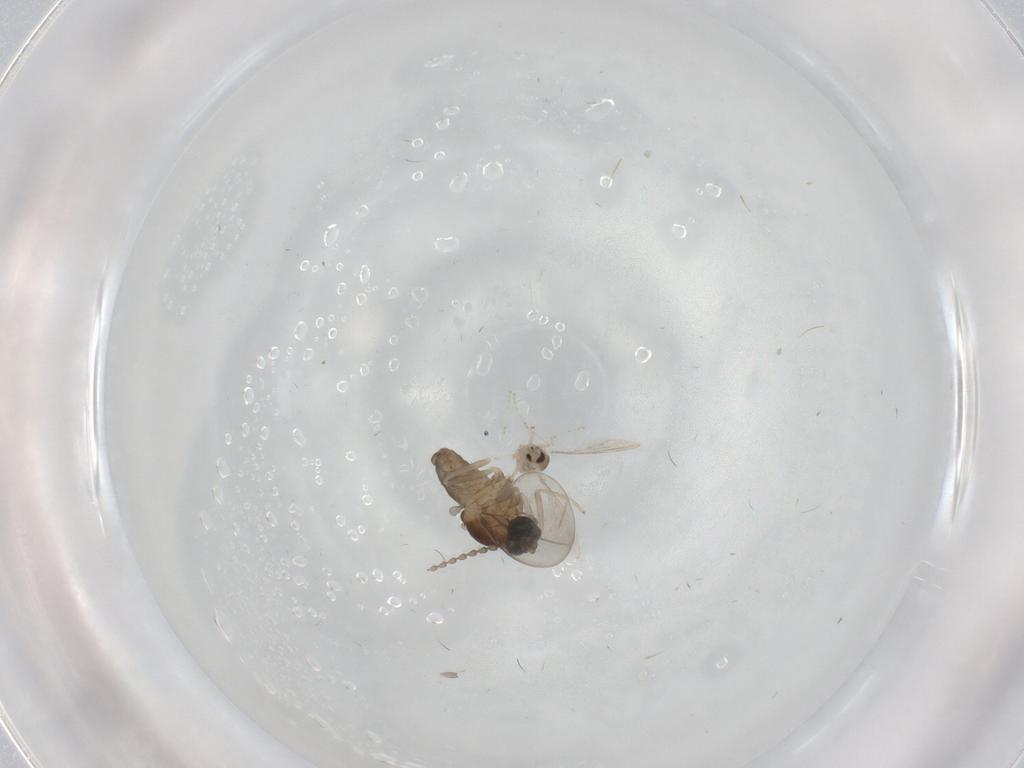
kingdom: Animalia
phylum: Arthropoda
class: Insecta
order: Diptera
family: Cecidomyiidae
